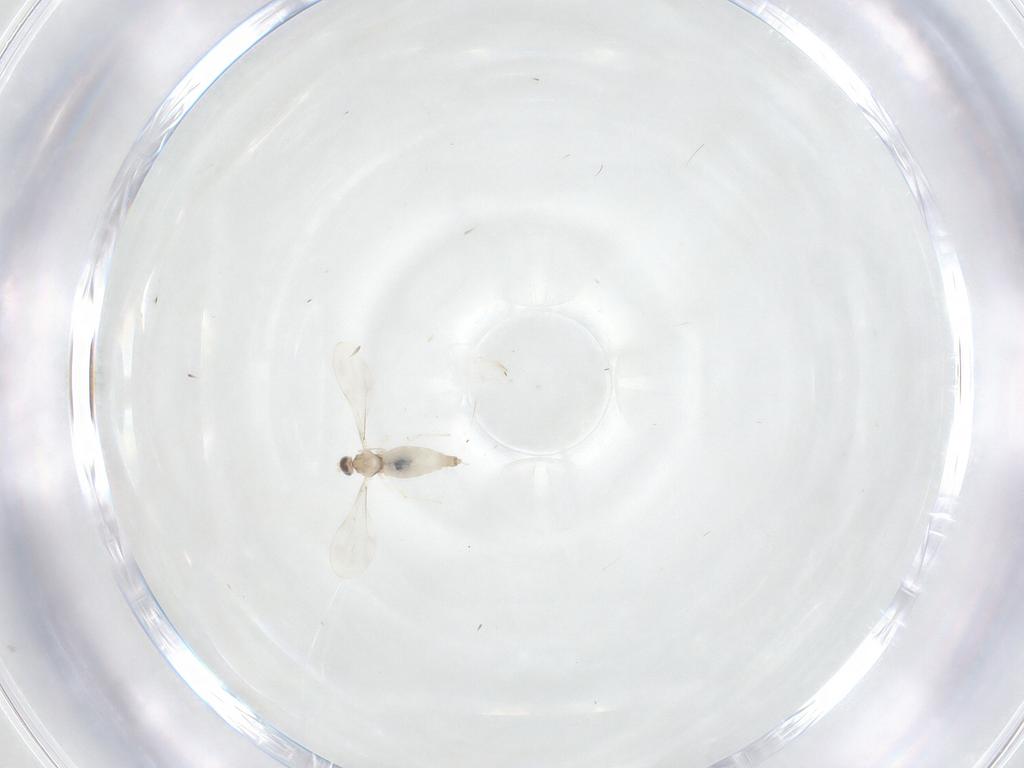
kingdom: Animalia
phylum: Arthropoda
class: Insecta
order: Diptera
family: Cecidomyiidae
